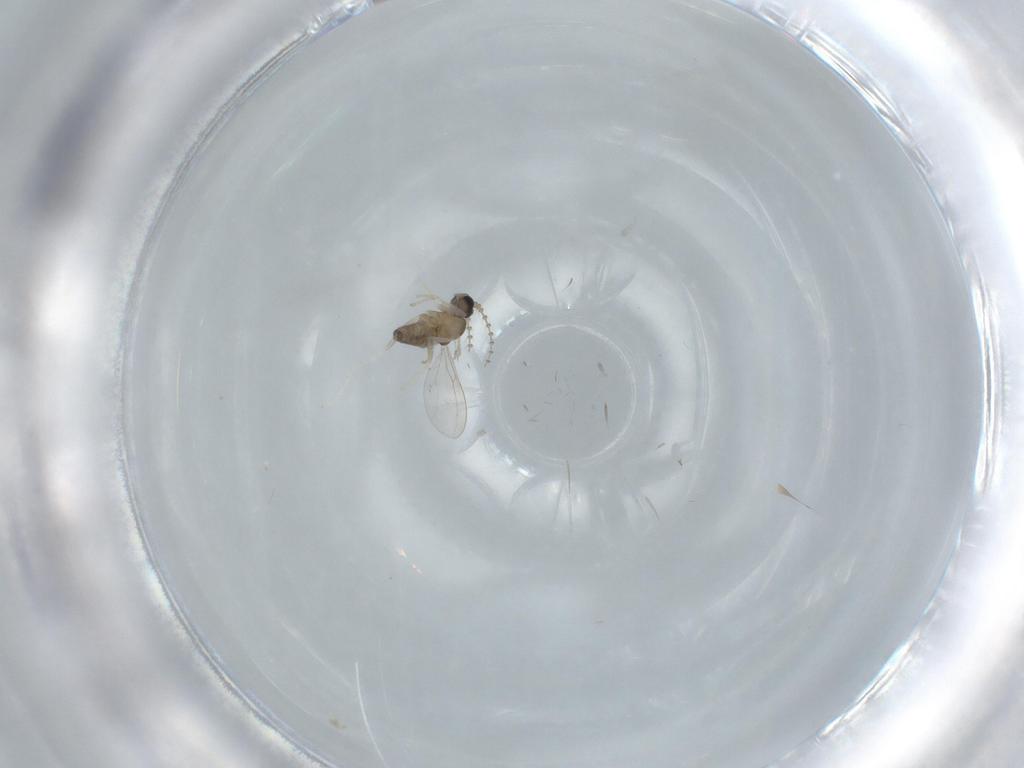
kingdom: Animalia
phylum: Arthropoda
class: Insecta
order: Diptera
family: Cecidomyiidae
